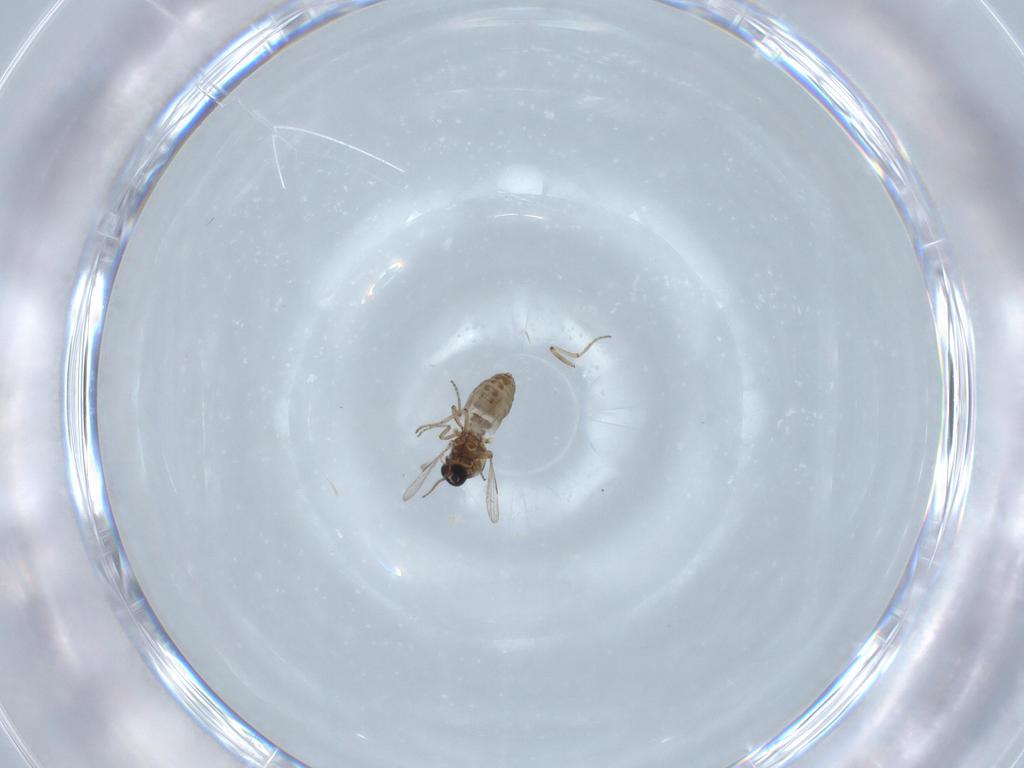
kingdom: Animalia
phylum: Arthropoda
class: Insecta
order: Diptera
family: Ceratopogonidae
